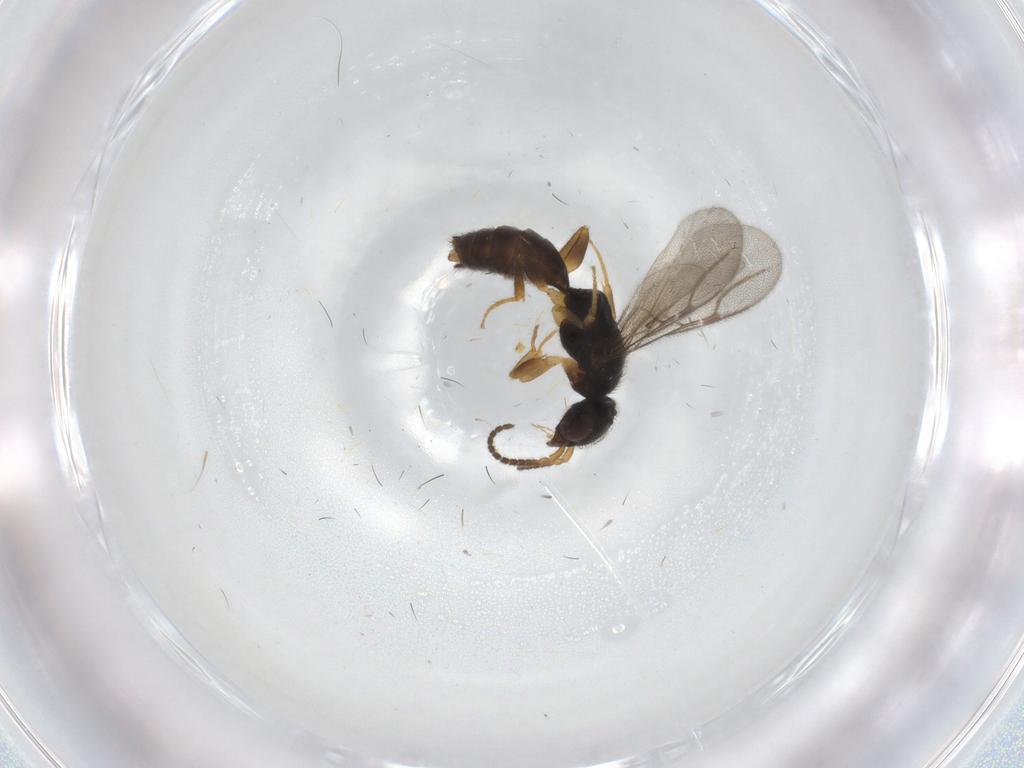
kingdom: Animalia
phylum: Arthropoda
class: Insecta
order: Hymenoptera
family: Bethylidae
